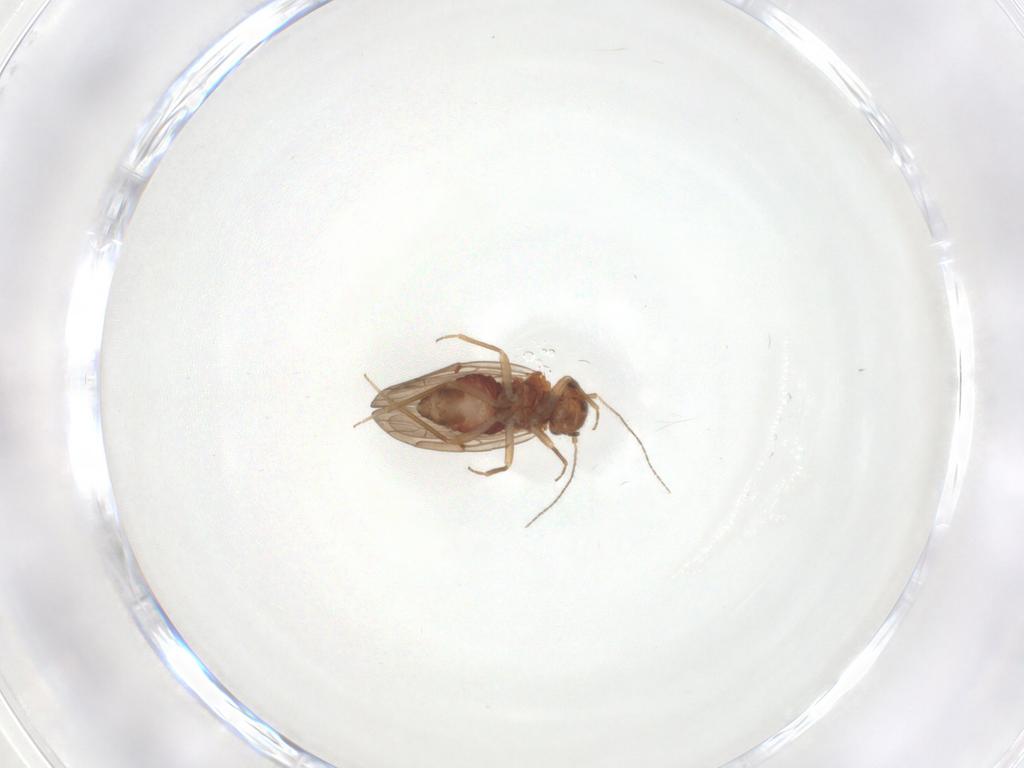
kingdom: Animalia
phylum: Arthropoda
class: Insecta
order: Psocodea
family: Ectopsocidae
